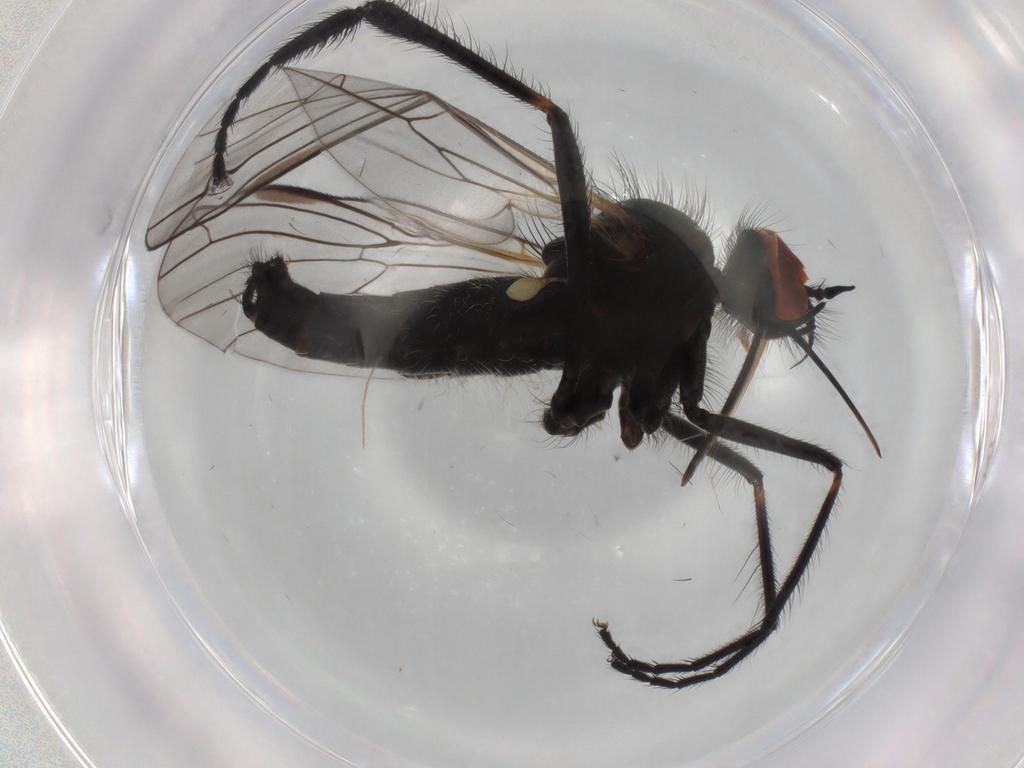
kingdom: Animalia
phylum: Arthropoda
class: Insecta
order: Diptera
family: Empididae
